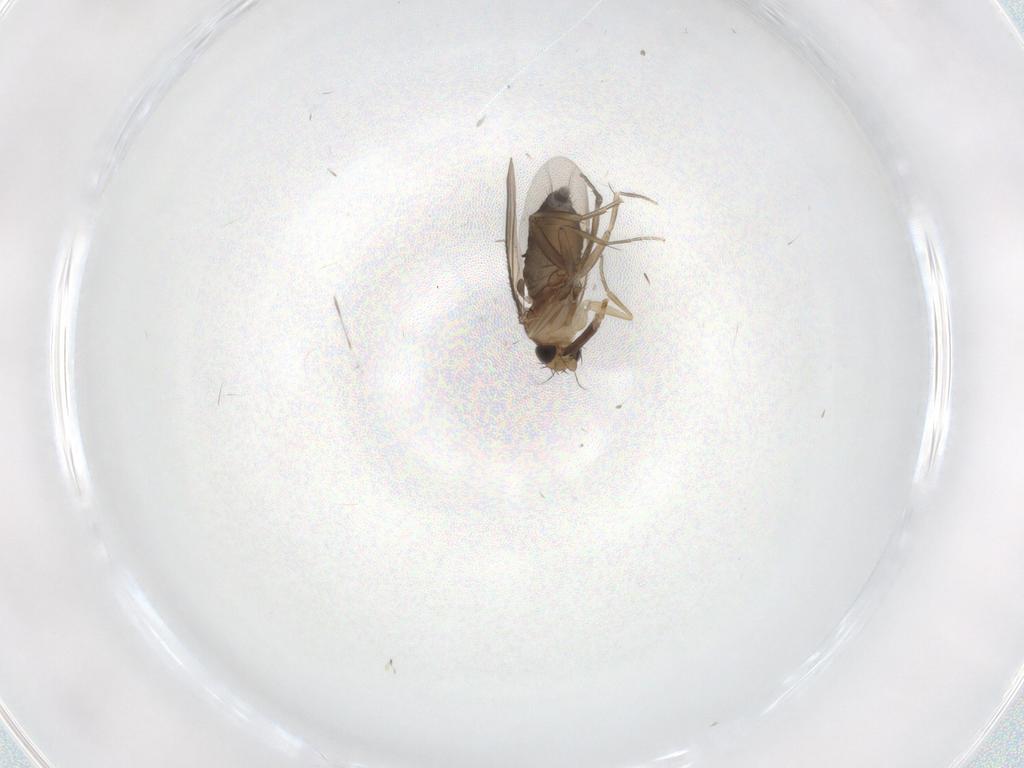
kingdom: Animalia
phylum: Arthropoda
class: Insecta
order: Diptera
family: Phoridae
